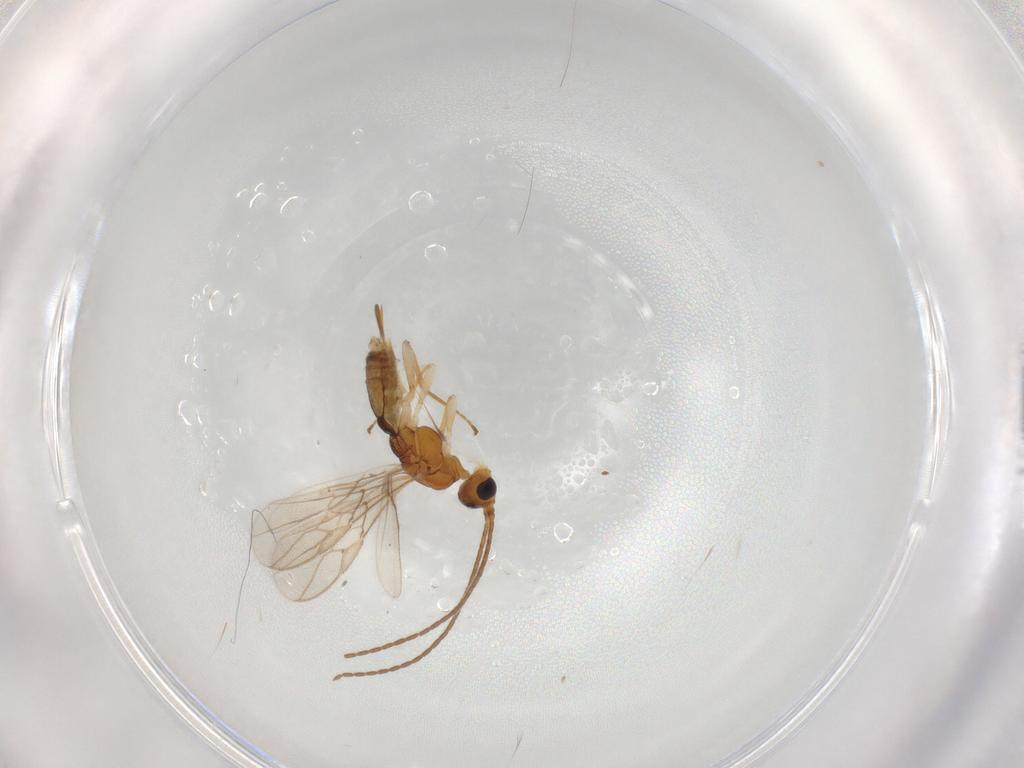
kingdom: Animalia
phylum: Arthropoda
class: Insecta
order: Hymenoptera
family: Braconidae
